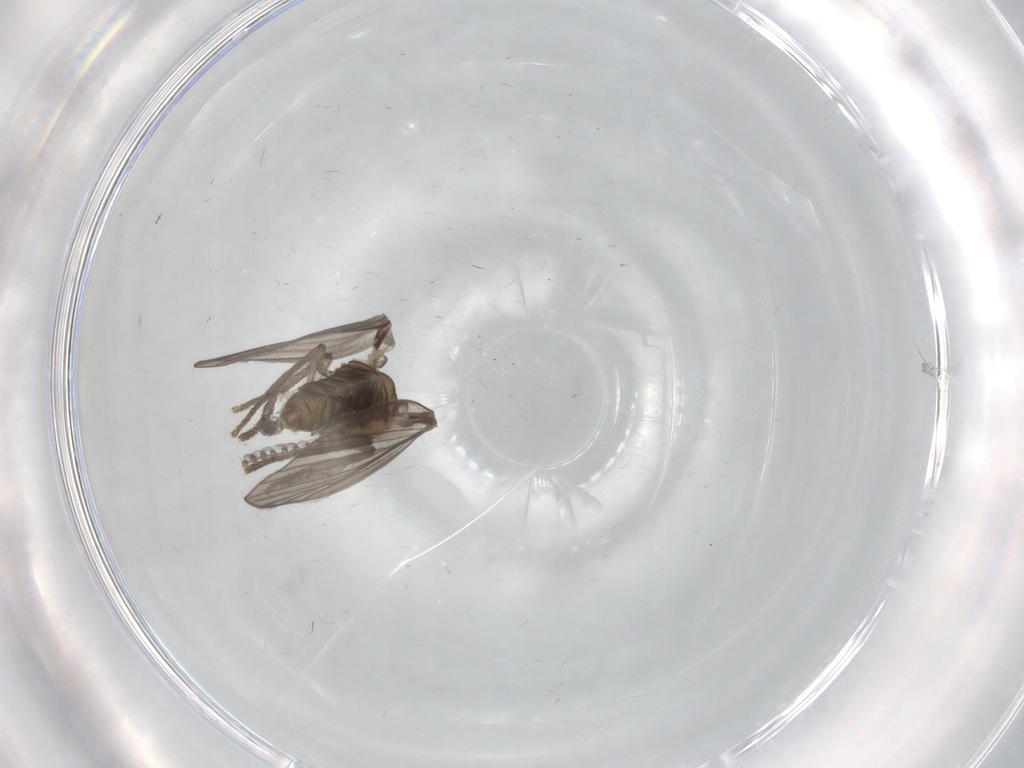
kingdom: Animalia
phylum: Arthropoda
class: Insecta
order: Diptera
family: Psychodidae
